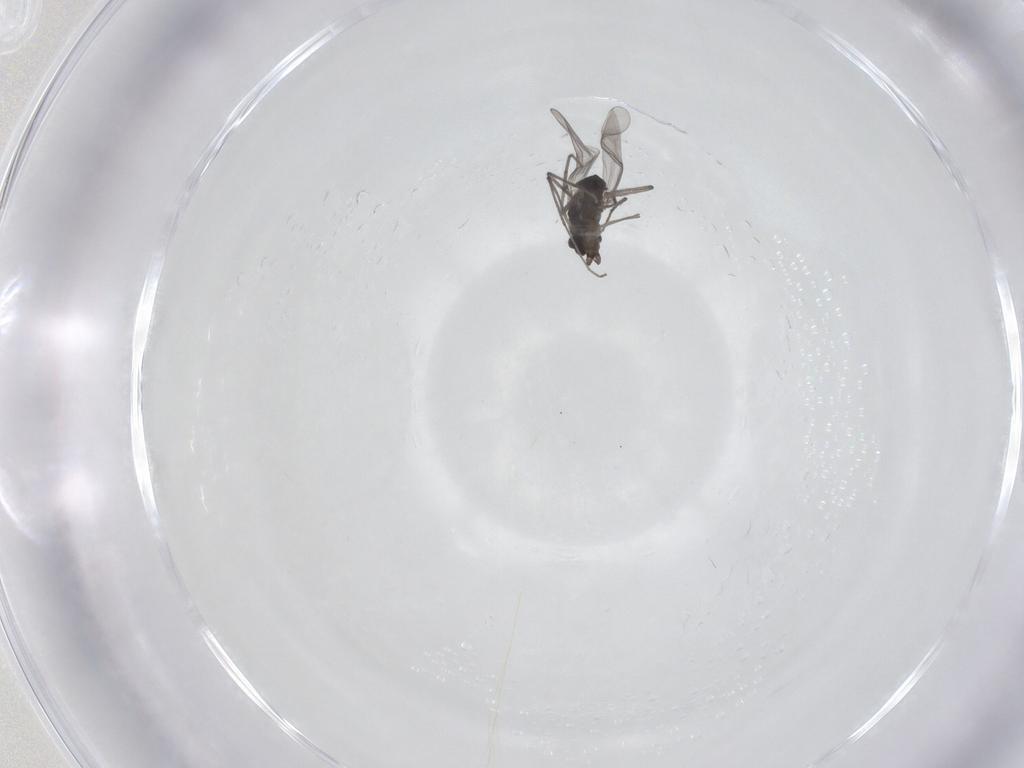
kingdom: Animalia
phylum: Arthropoda
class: Insecta
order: Diptera
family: Chironomidae
